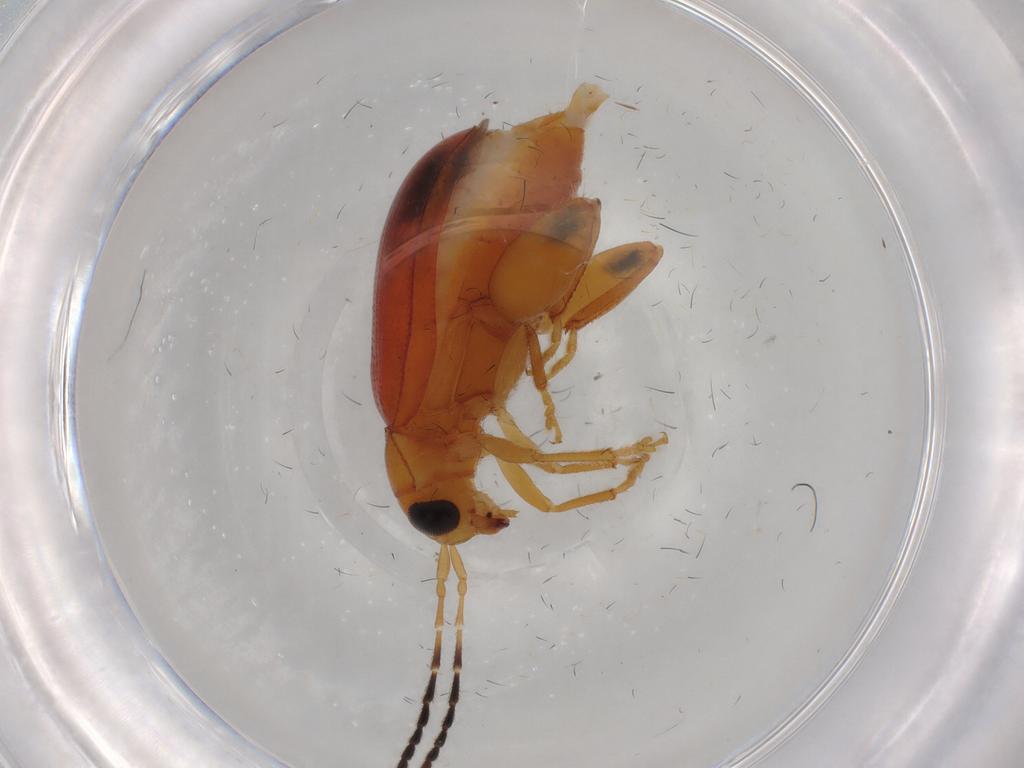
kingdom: Animalia
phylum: Arthropoda
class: Insecta
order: Coleoptera
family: Chrysomelidae
